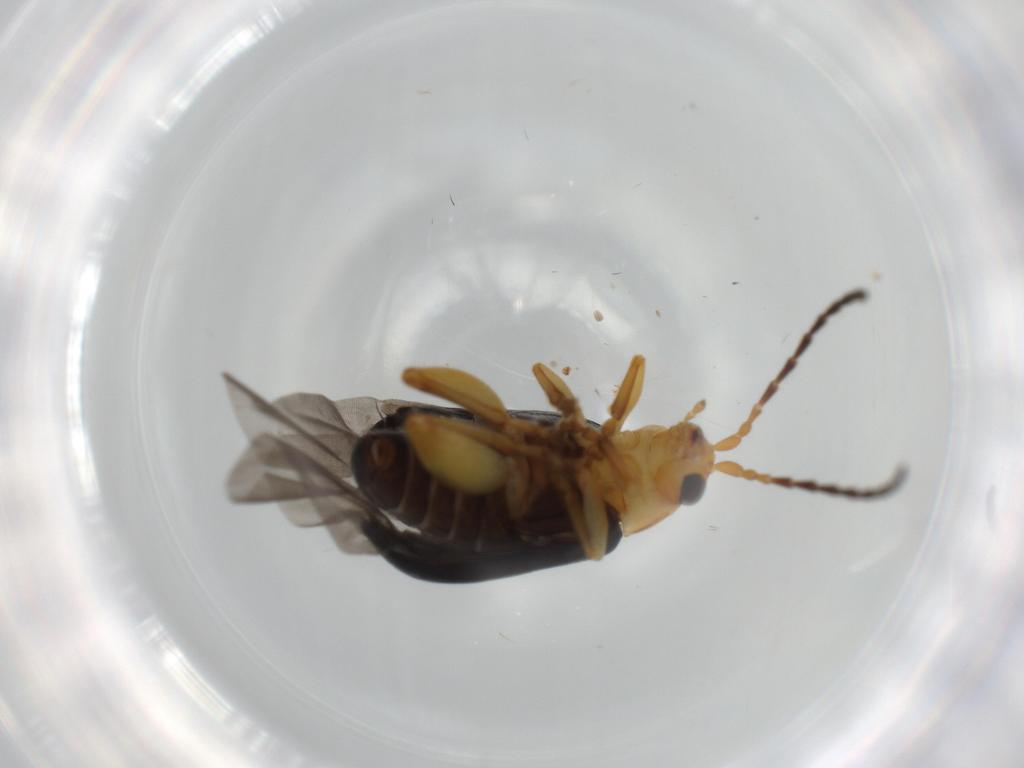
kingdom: Animalia
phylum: Arthropoda
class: Insecta
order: Coleoptera
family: Chrysomelidae
